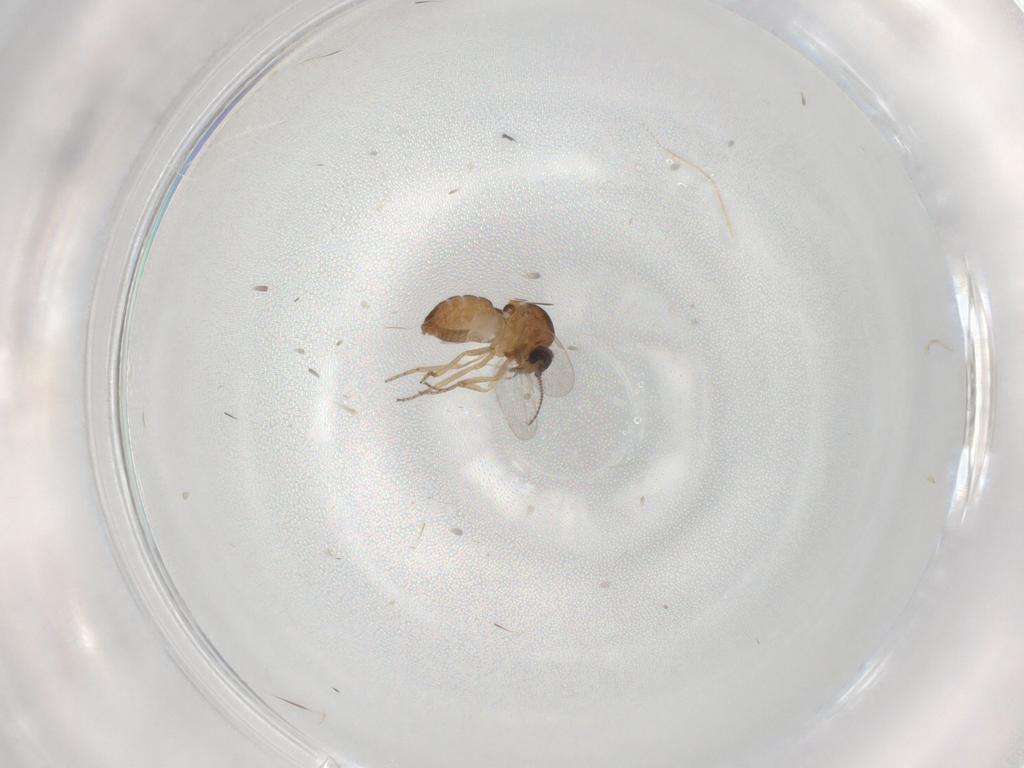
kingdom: Animalia
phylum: Arthropoda
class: Insecta
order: Diptera
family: Ceratopogonidae
